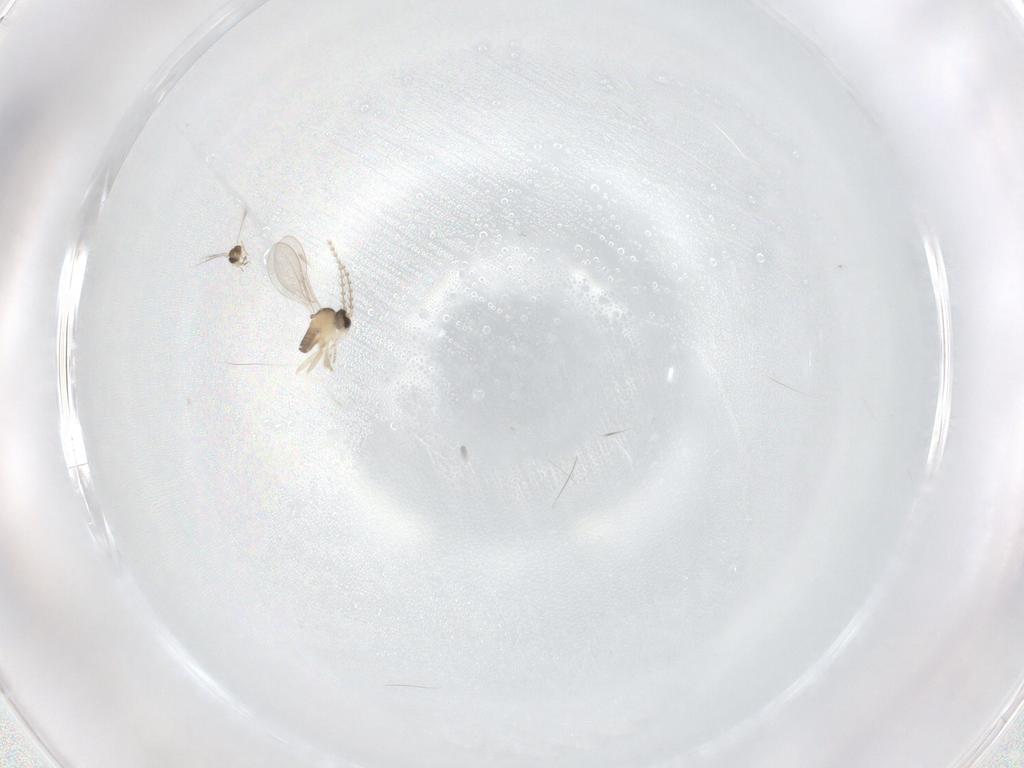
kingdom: Animalia
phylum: Arthropoda
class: Insecta
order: Diptera
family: Cecidomyiidae
